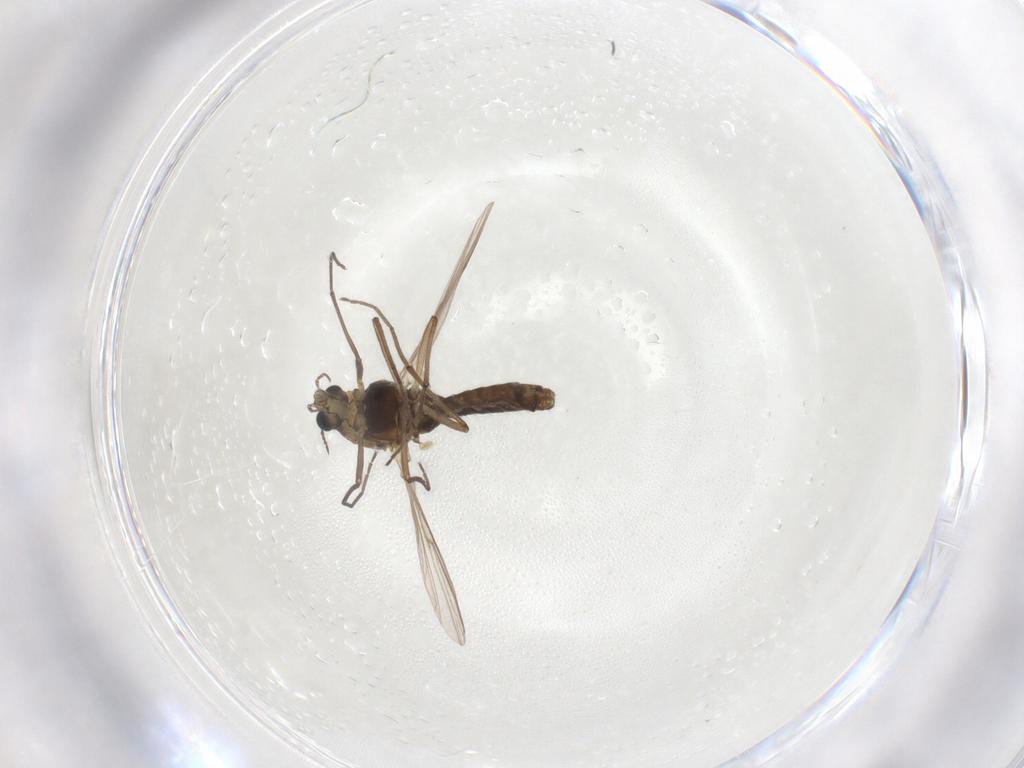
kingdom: Animalia
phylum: Arthropoda
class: Insecta
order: Diptera
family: Chironomidae
